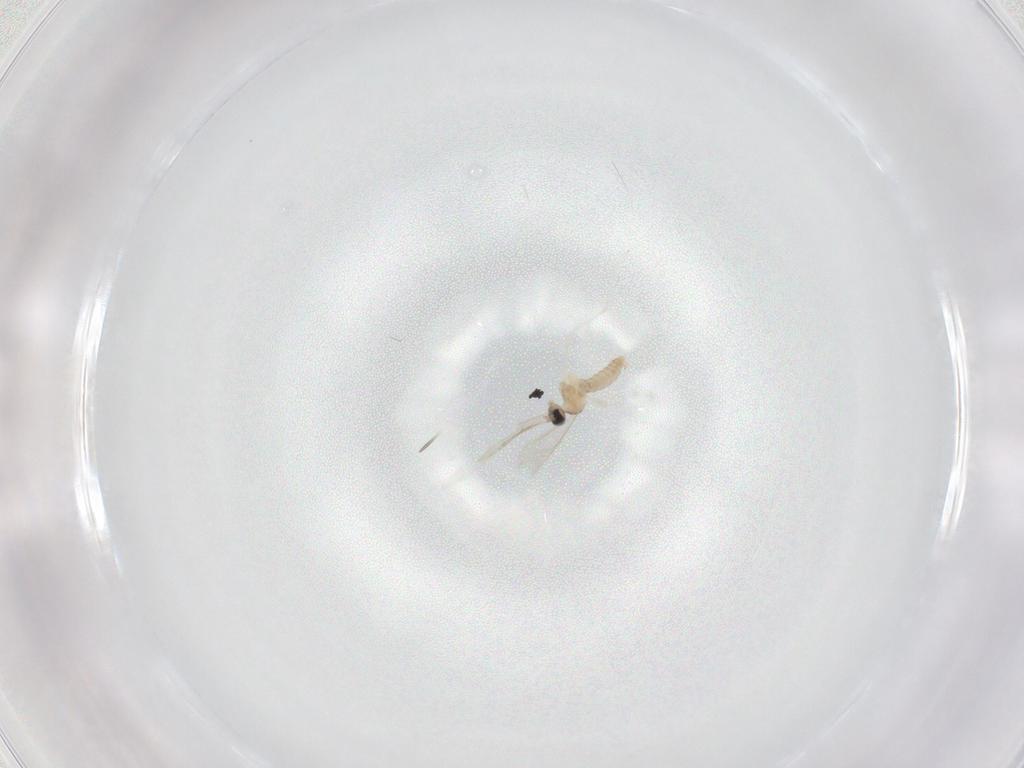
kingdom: Animalia
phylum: Arthropoda
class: Insecta
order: Diptera
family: Chloropidae
